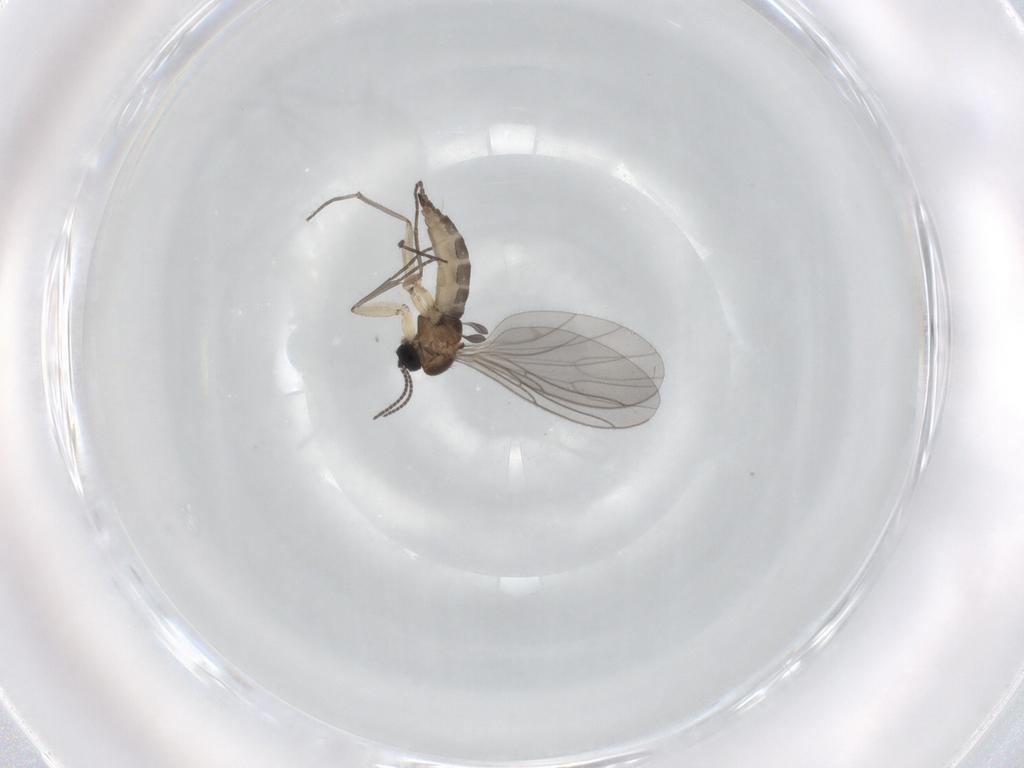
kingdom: Animalia
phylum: Arthropoda
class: Insecta
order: Diptera
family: Sciaridae
